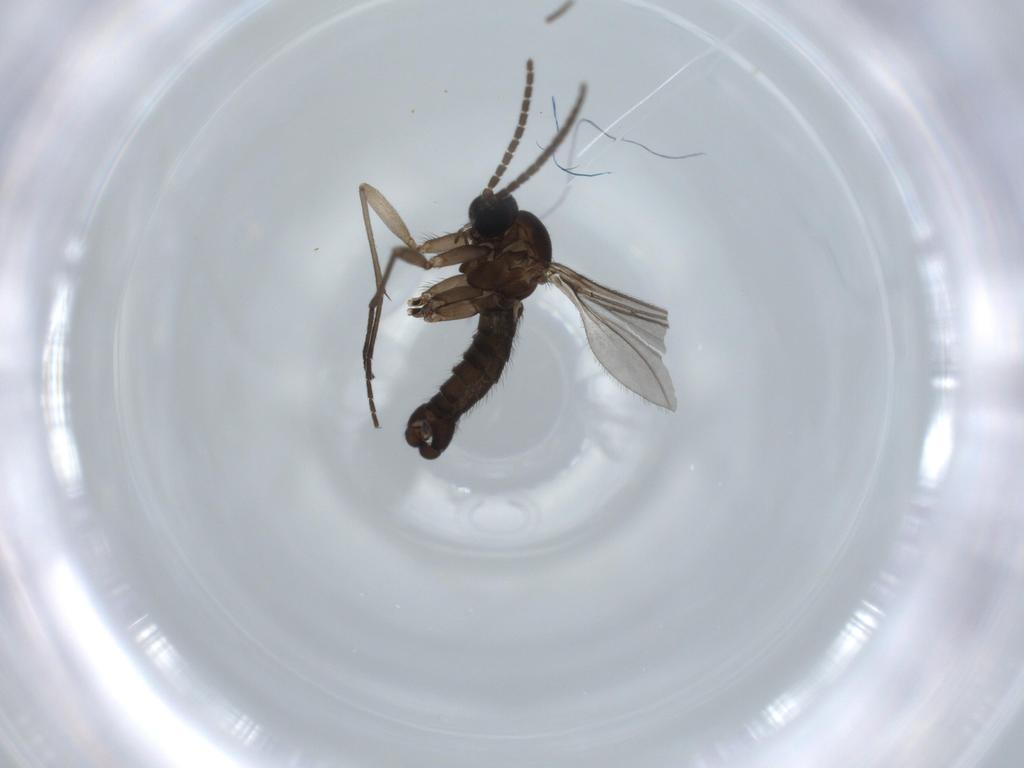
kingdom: Animalia
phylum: Arthropoda
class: Insecta
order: Diptera
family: Sciaridae
